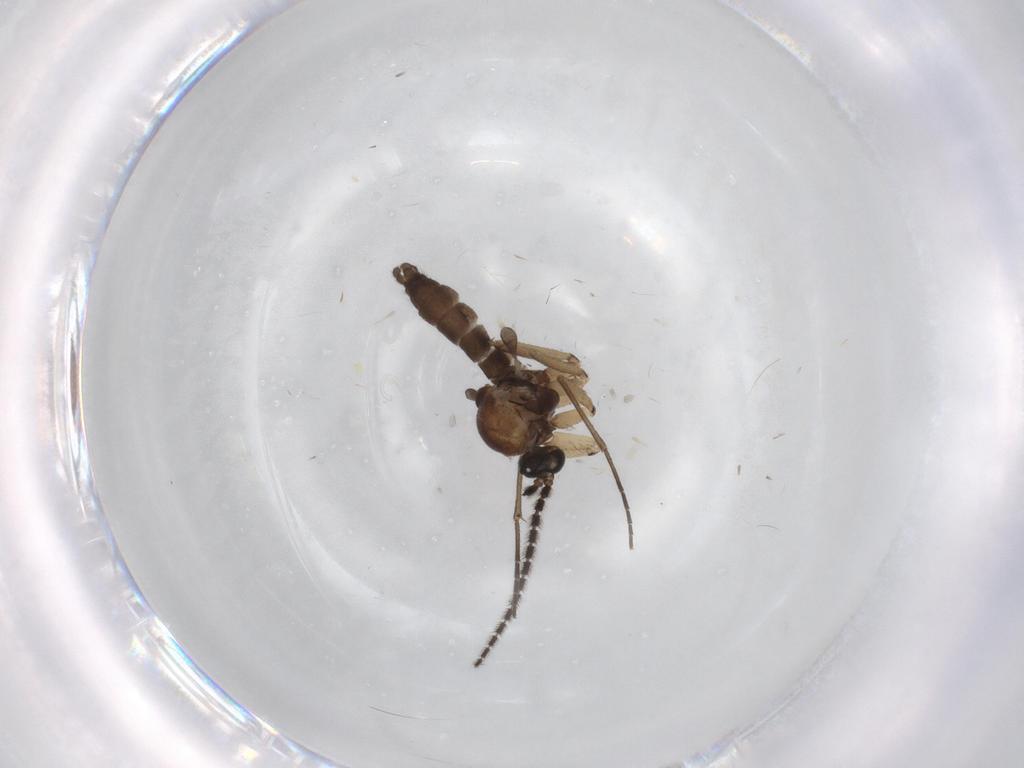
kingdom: Animalia
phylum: Arthropoda
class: Insecta
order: Diptera
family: Sciaridae
